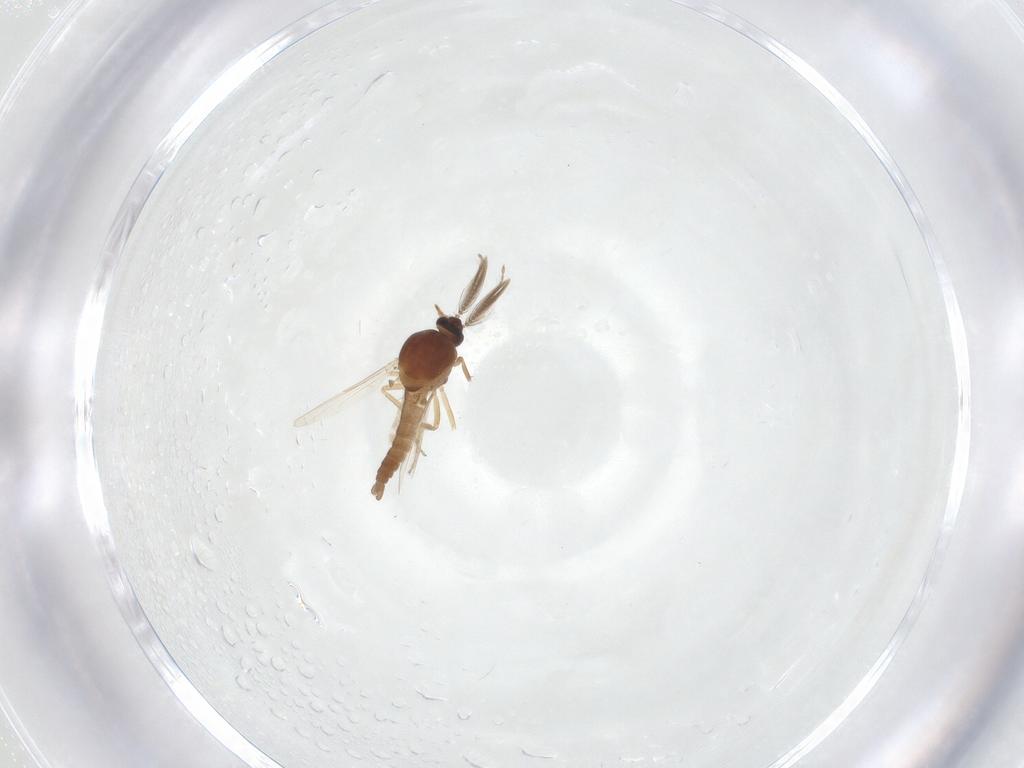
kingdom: Animalia
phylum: Arthropoda
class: Insecta
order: Diptera
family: Ceratopogonidae
